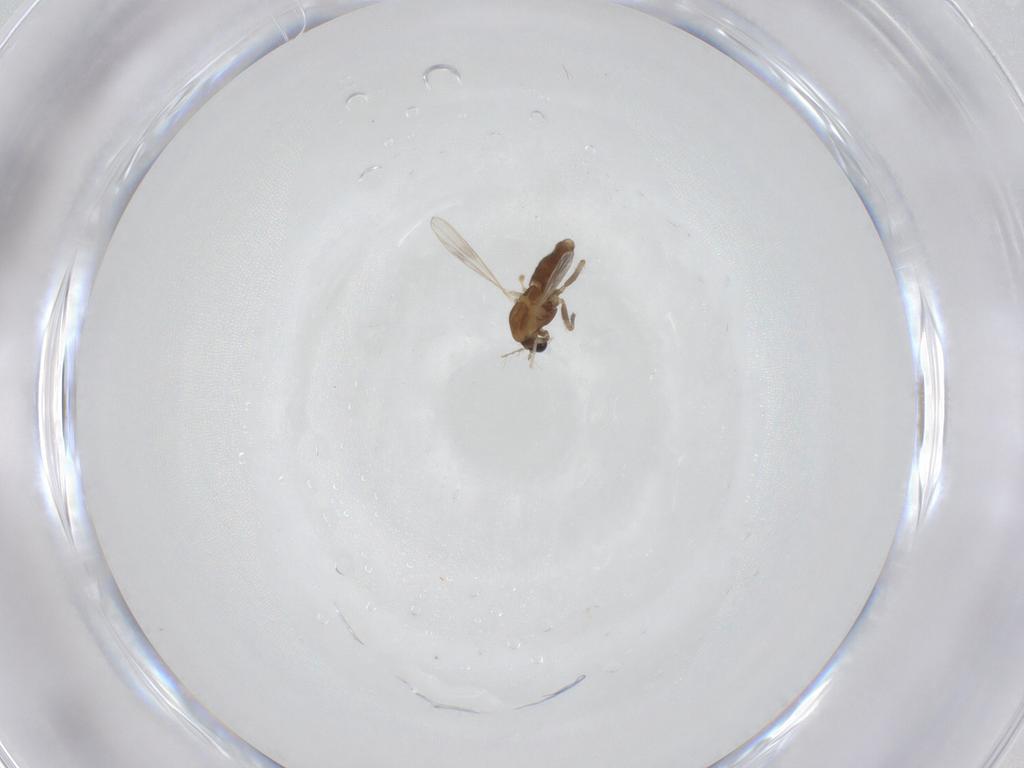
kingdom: Animalia
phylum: Arthropoda
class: Insecta
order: Diptera
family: Chironomidae
